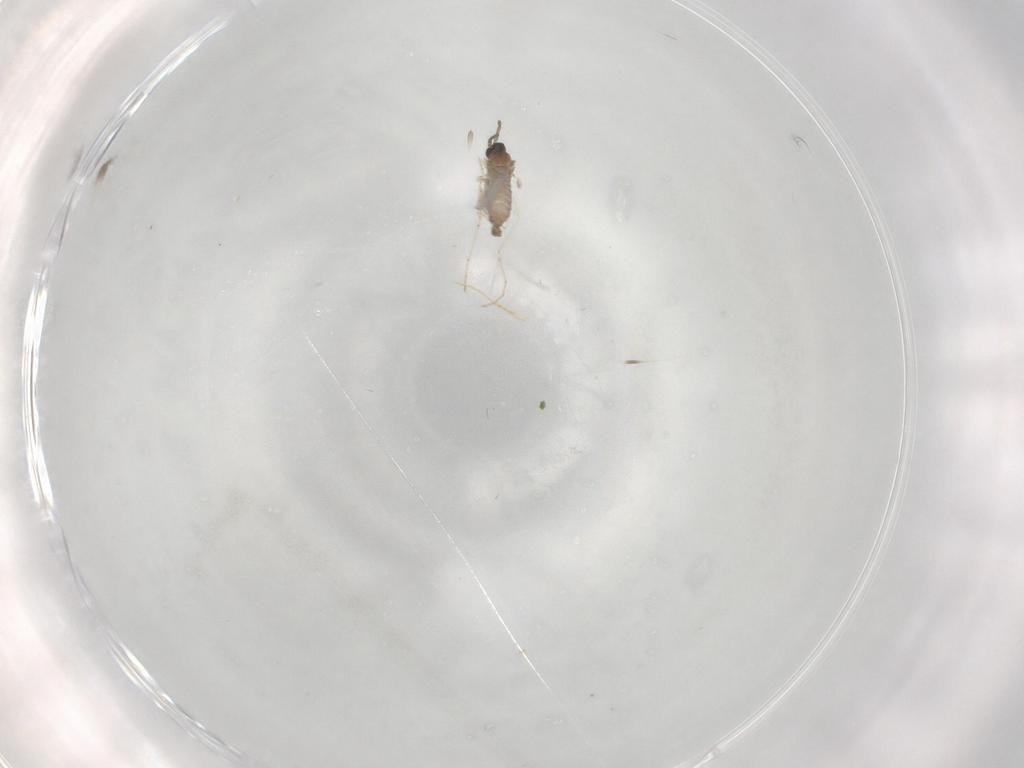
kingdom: Animalia
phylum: Arthropoda
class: Insecta
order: Diptera
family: Cecidomyiidae
